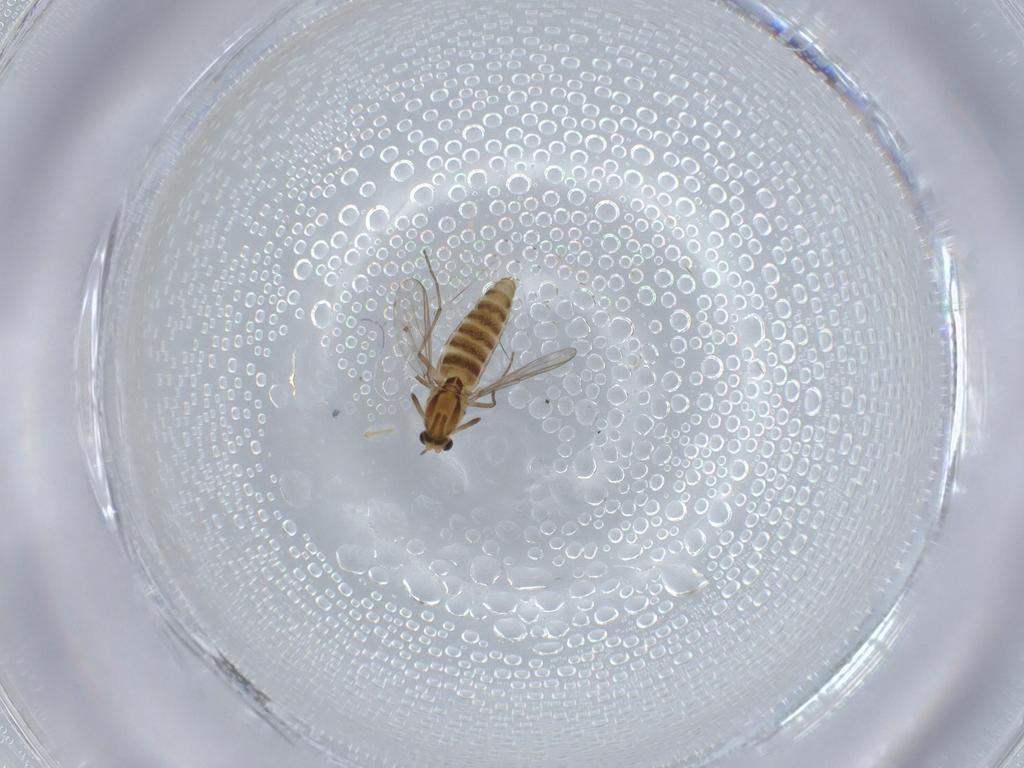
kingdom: Animalia
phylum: Arthropoda
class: Insecta
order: Diptera
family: Chironomidae
